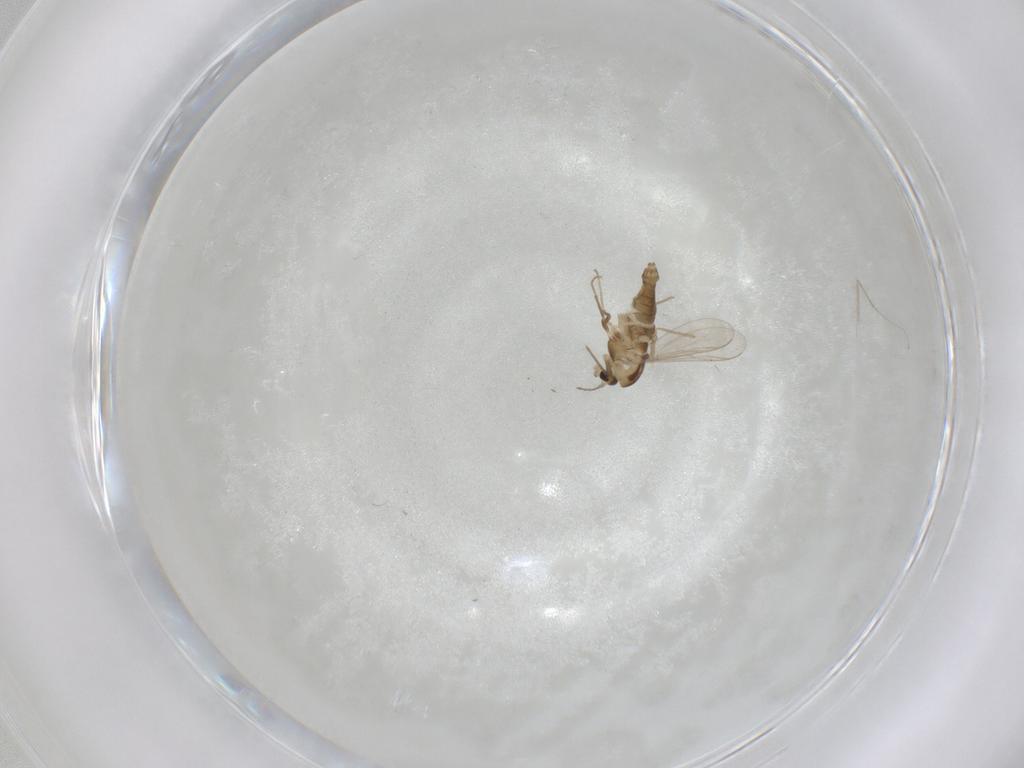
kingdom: Animalia
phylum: Arthropoda
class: Insecta
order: Diptera
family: Chironomidae
